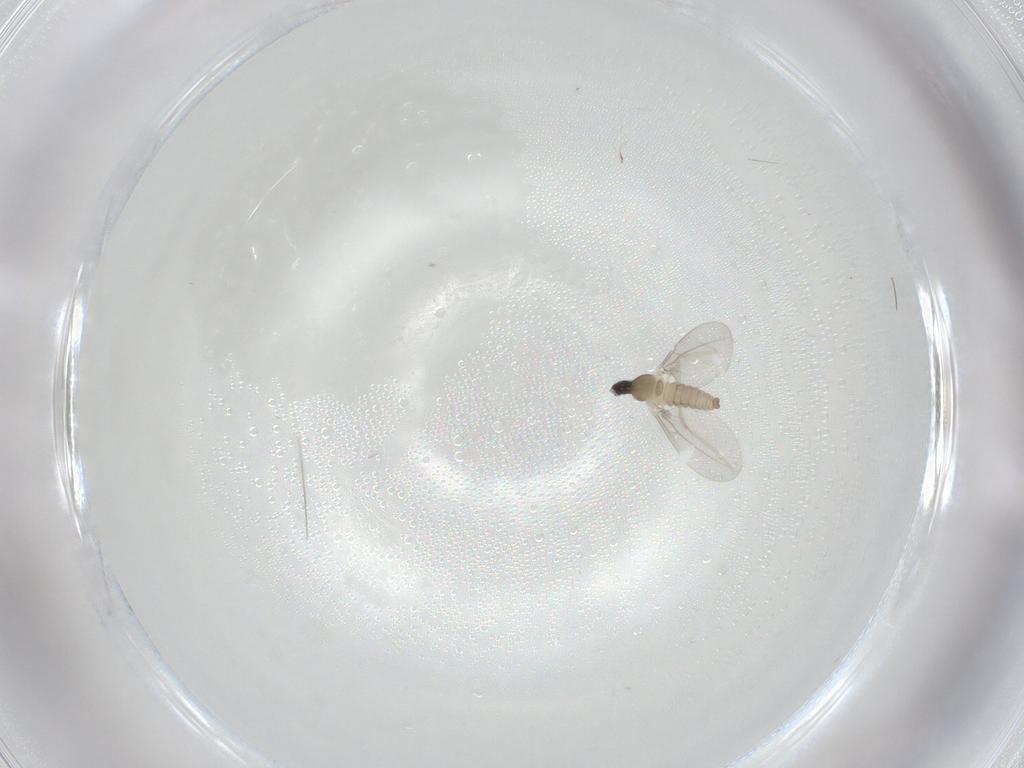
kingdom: Animalia
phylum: Arthropoda
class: Insecta
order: Diptera
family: Chironomidae
